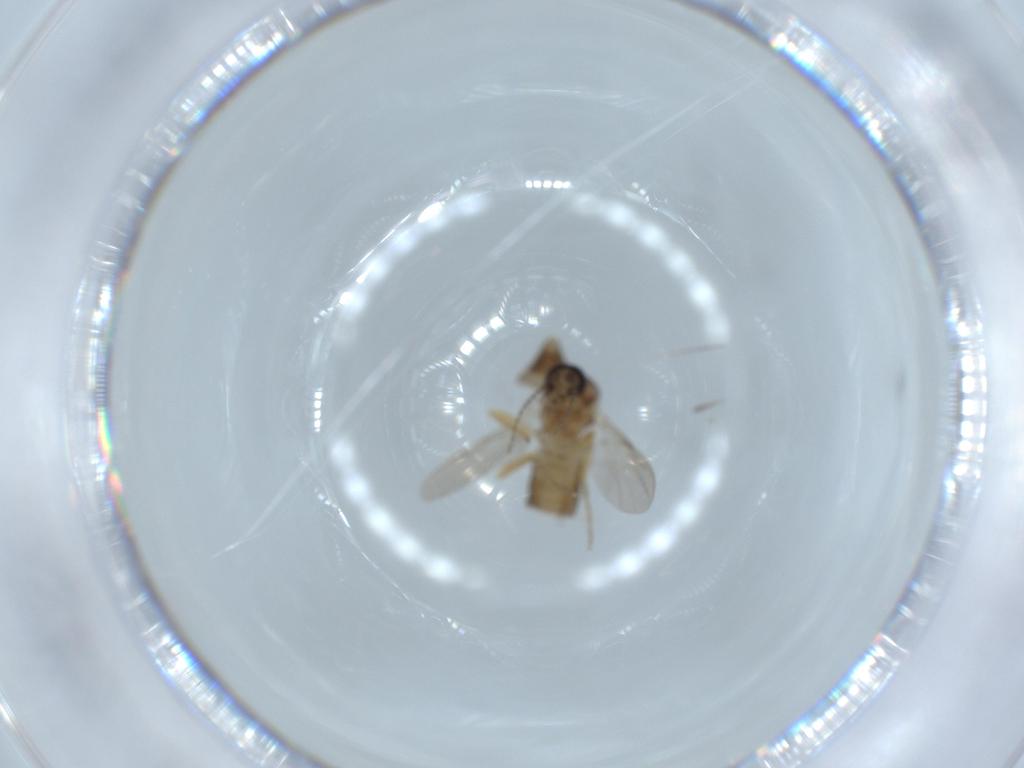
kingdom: Animalia
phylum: Arthropoda
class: Insecta
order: Diptera
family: Ceratopogonidae
